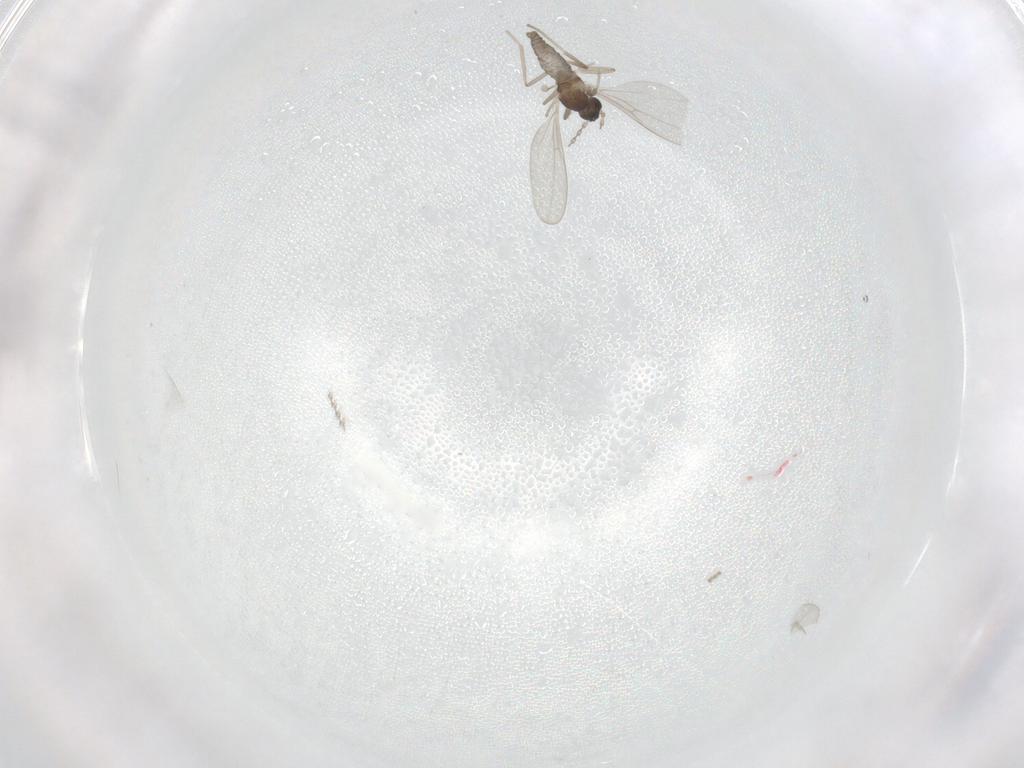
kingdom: Animalia
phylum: Arthropoda
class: Insecta
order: Diptera
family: Cecidomyiidae
